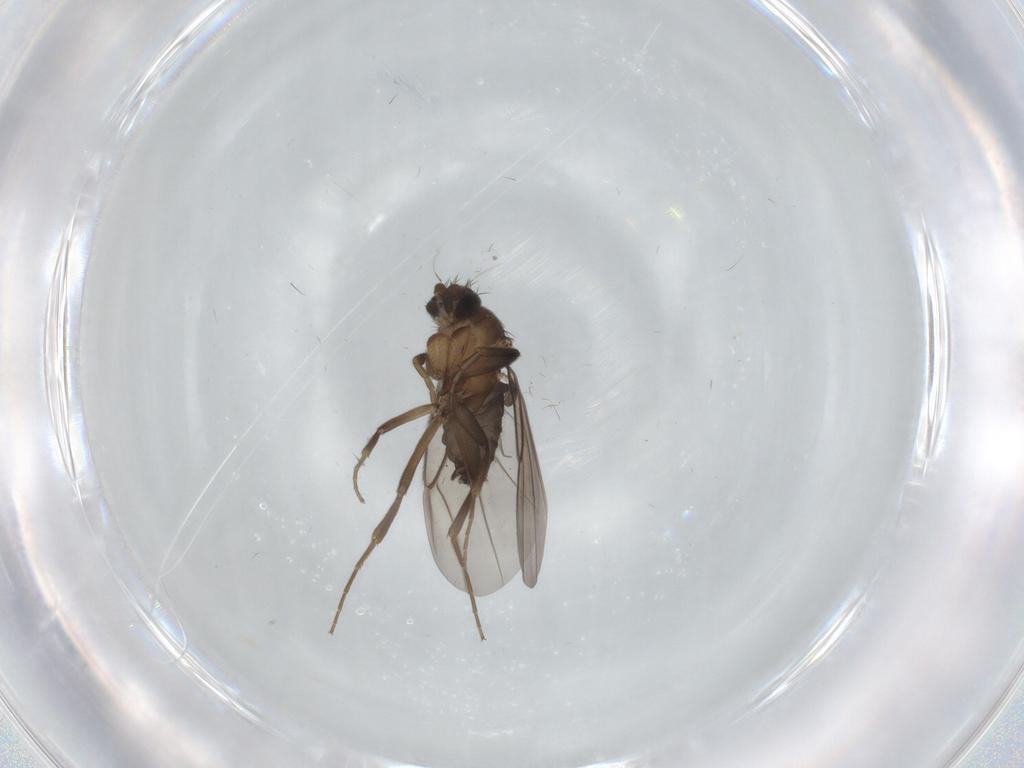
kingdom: Animalia
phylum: Arthropoda
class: Insecta
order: Diptera
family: Phoridae
